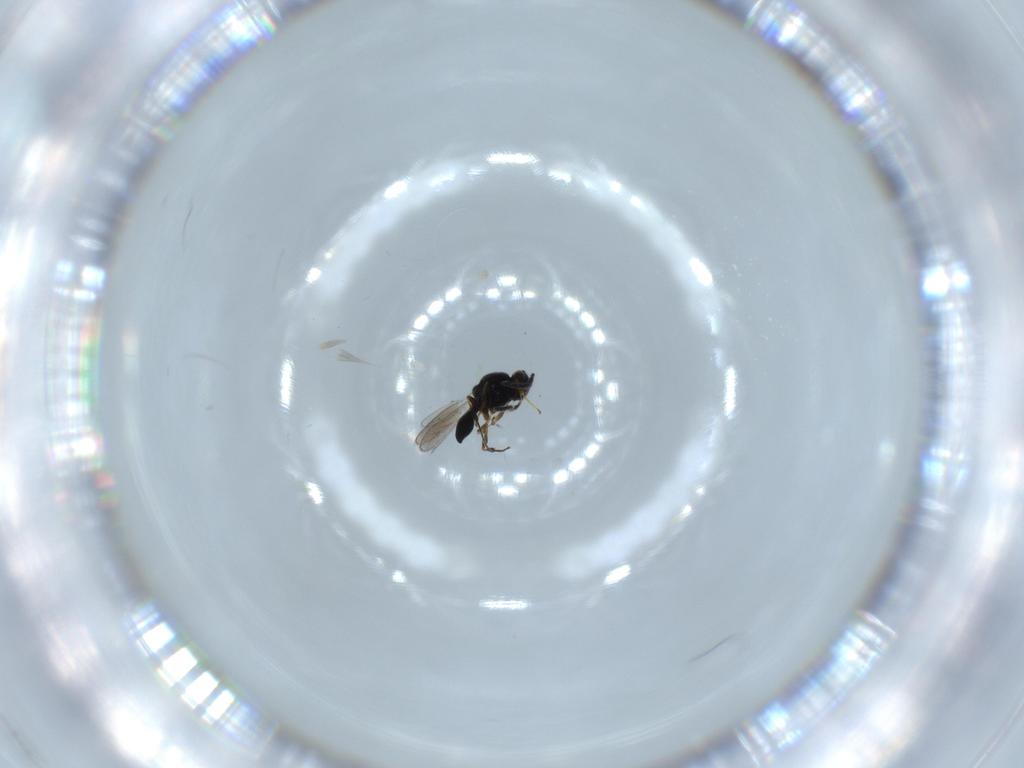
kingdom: Animalia
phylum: Arthropoda
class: Insecta
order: Hymenoptera
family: Platygastridae
